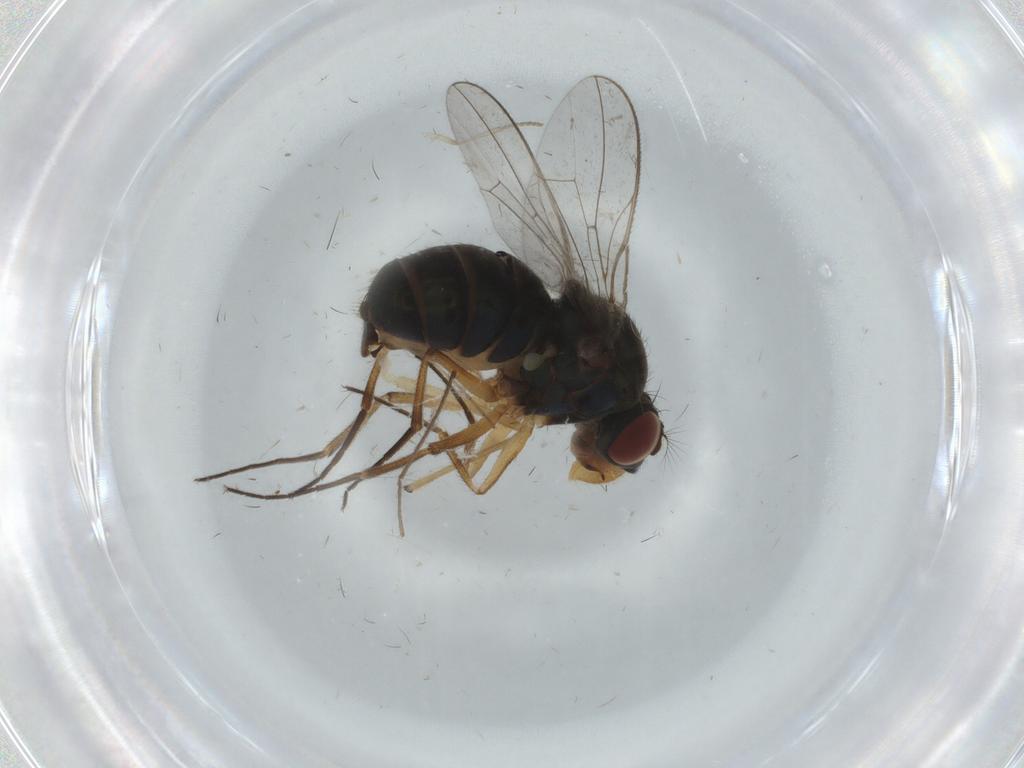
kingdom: Animalia
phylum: Arthropoda
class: Insecta
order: Diptera
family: Ephydridae
